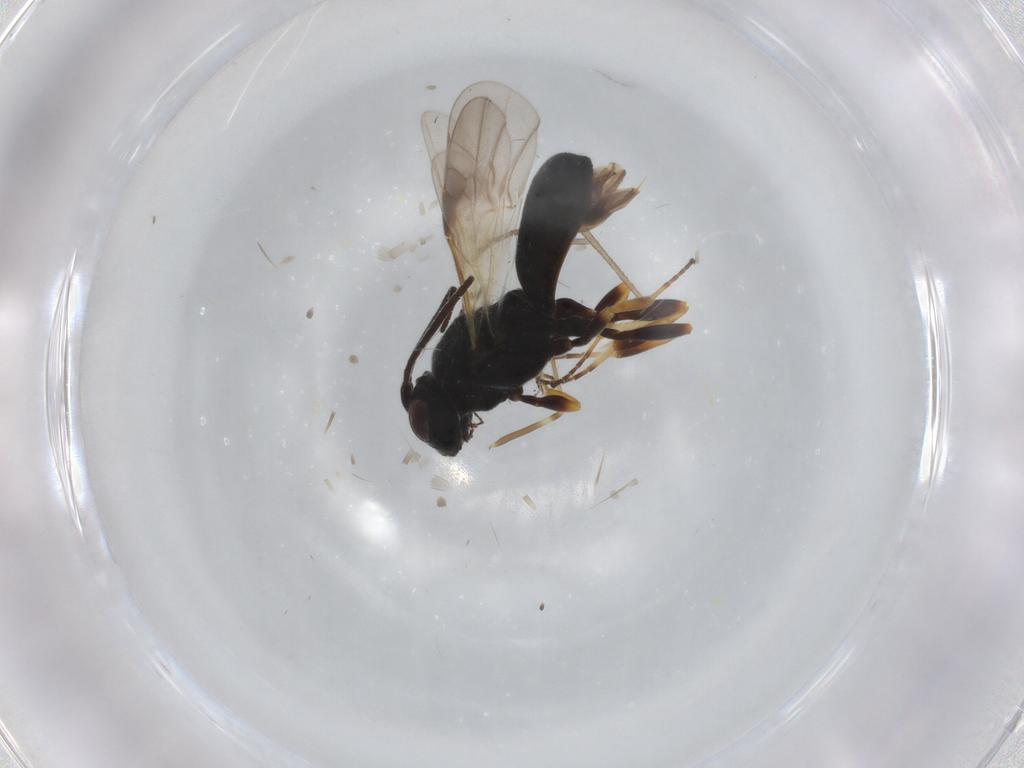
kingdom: Animalia
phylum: Arthropoda
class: Insecta
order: Hymenoptera
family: Braconidae
